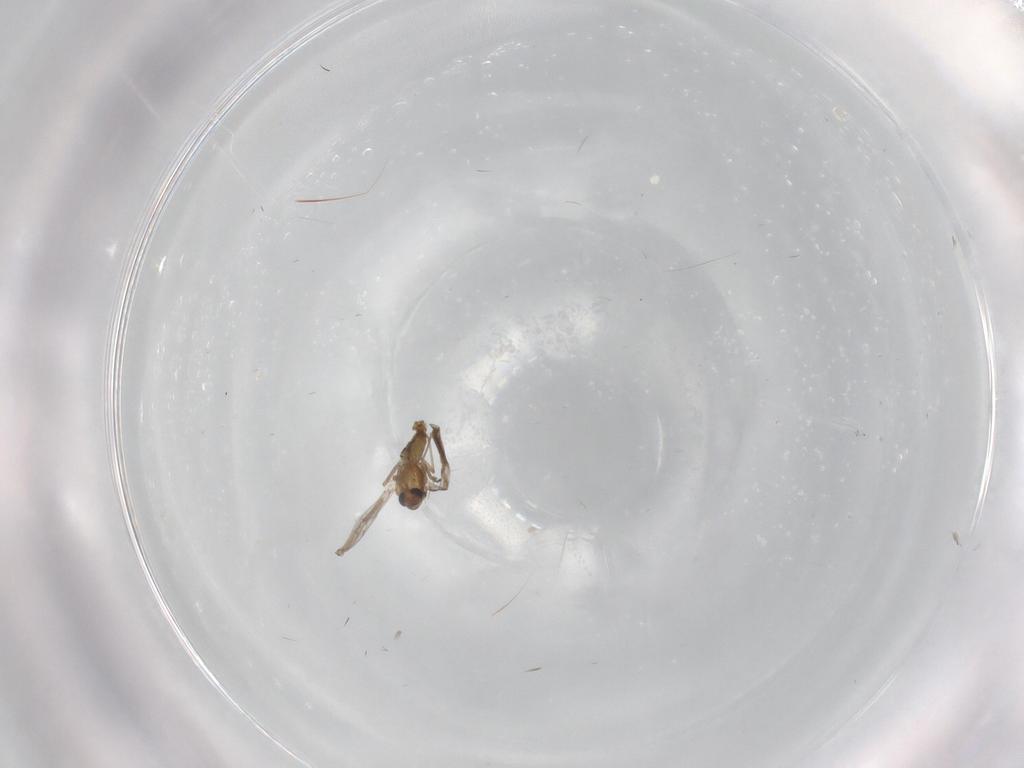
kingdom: Animalia
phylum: Arthropoda
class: Insecta
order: Diptera
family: Chironomidae
